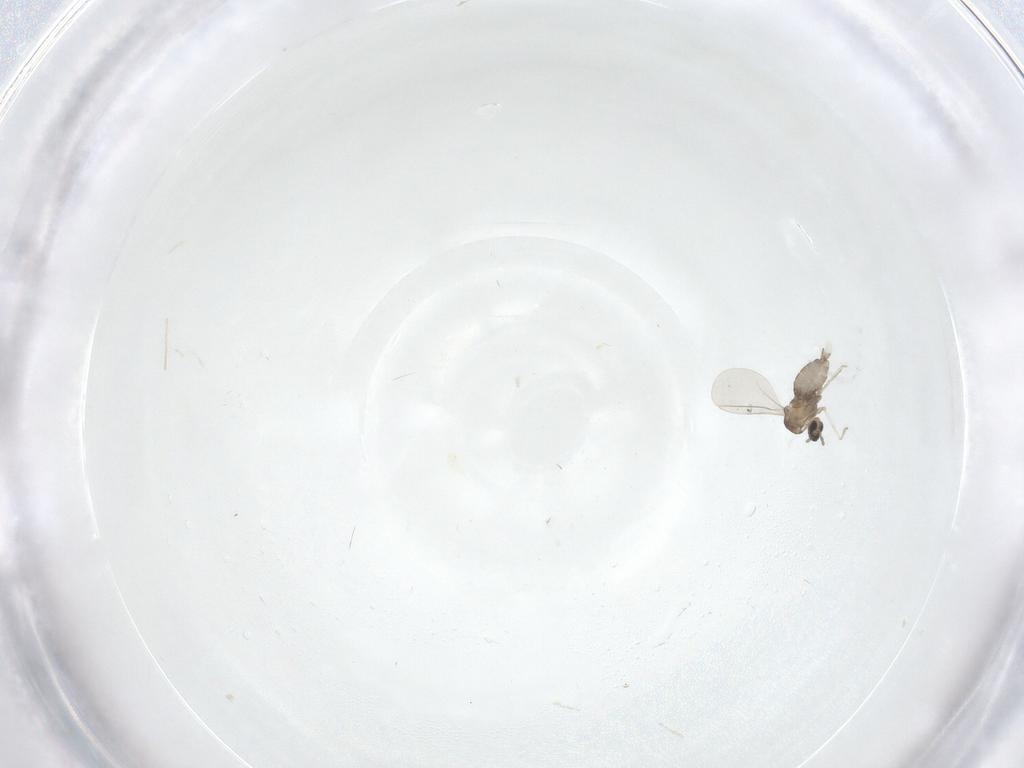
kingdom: Animalia
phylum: Arthropoda
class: Insecta
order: Diptera
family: Cecidomyiidae
